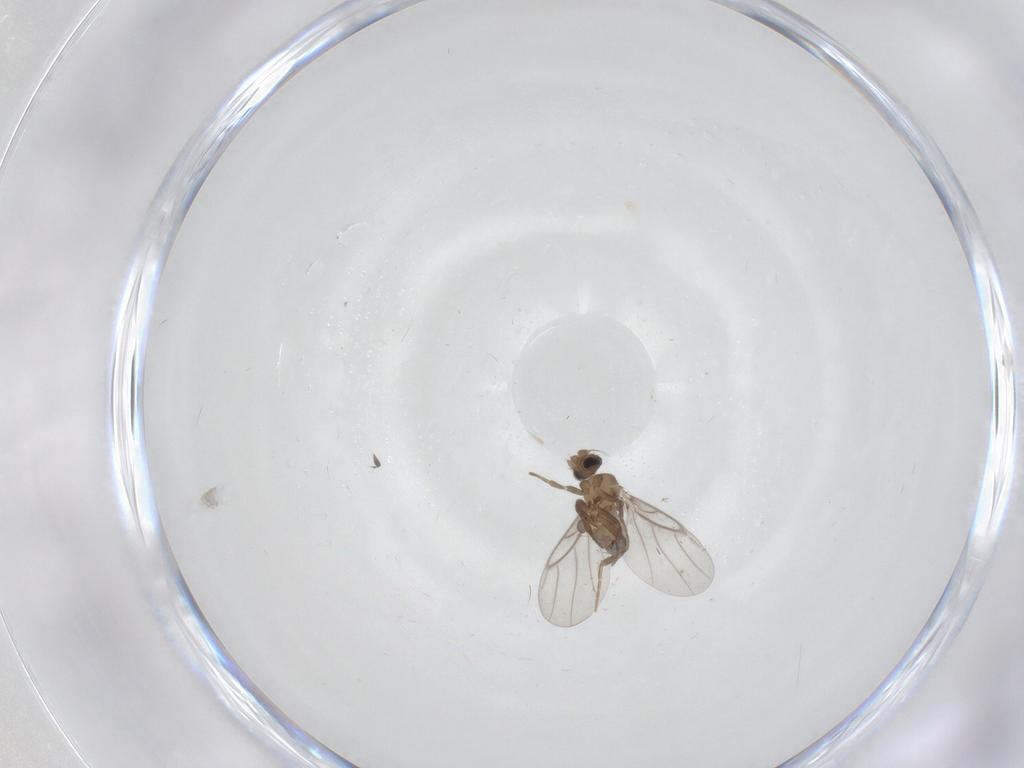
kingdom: Animalia
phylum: Arthropoda
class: Insecta
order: Diptera
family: Cecidomyiidae
